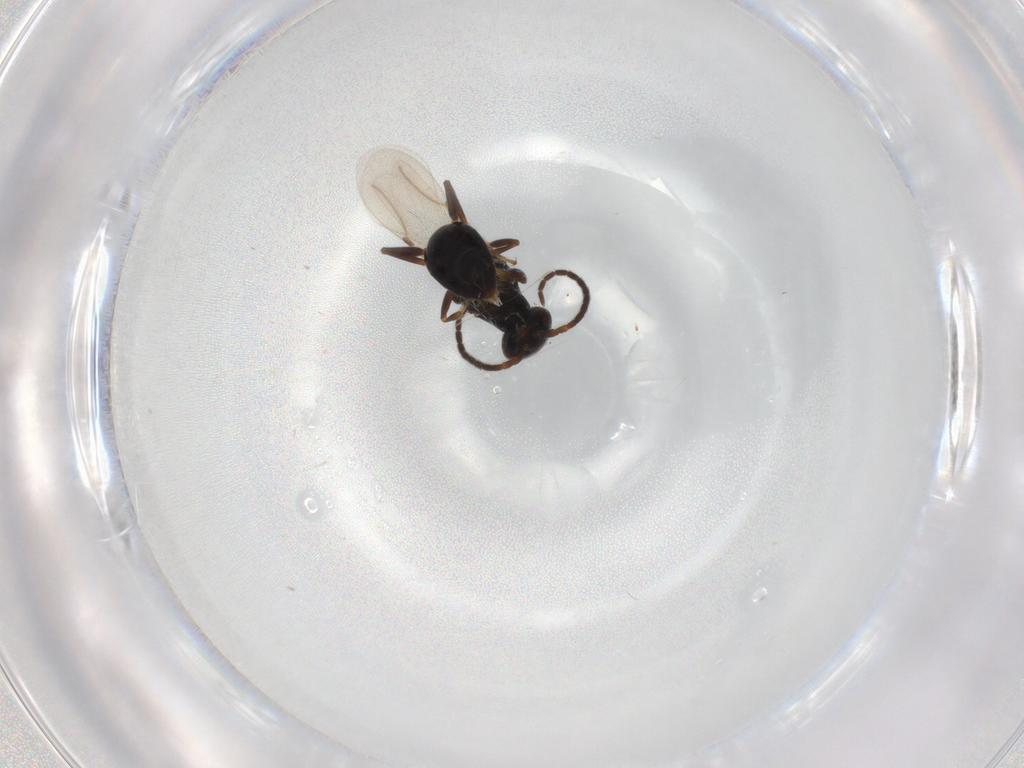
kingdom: Animalia
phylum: Arthropoda
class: Insecta
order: Hymenoptera
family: Bethylidae
